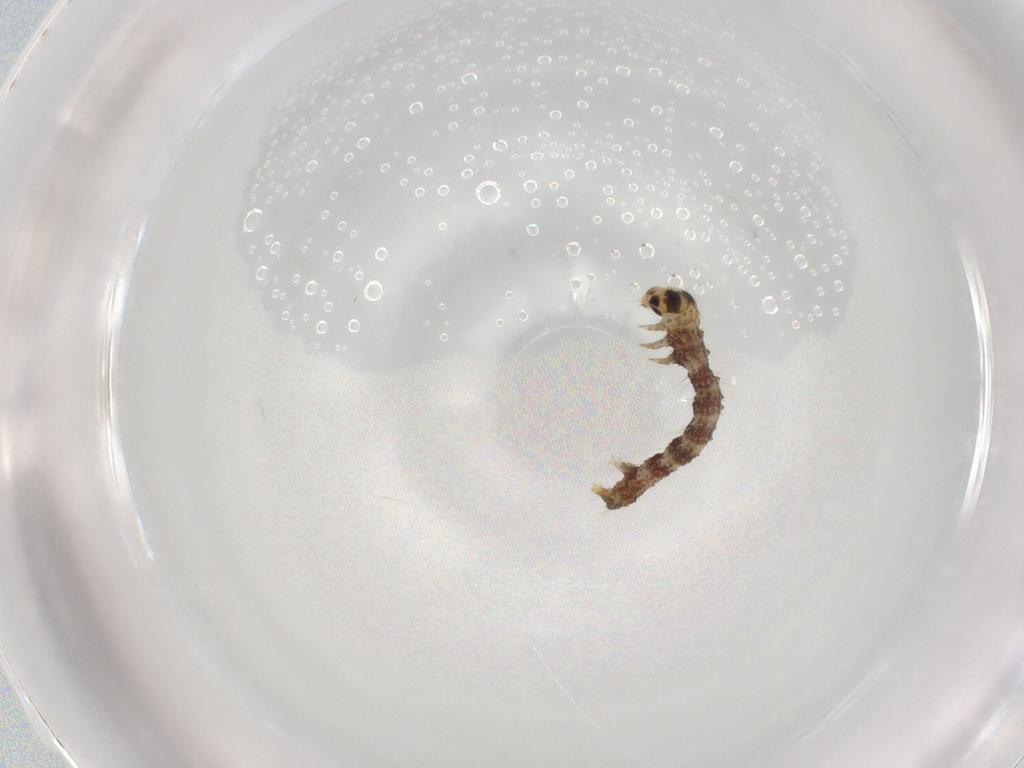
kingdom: Animalia
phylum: Arthropoda
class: Insecta
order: Lepidoptera
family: Geometridae
